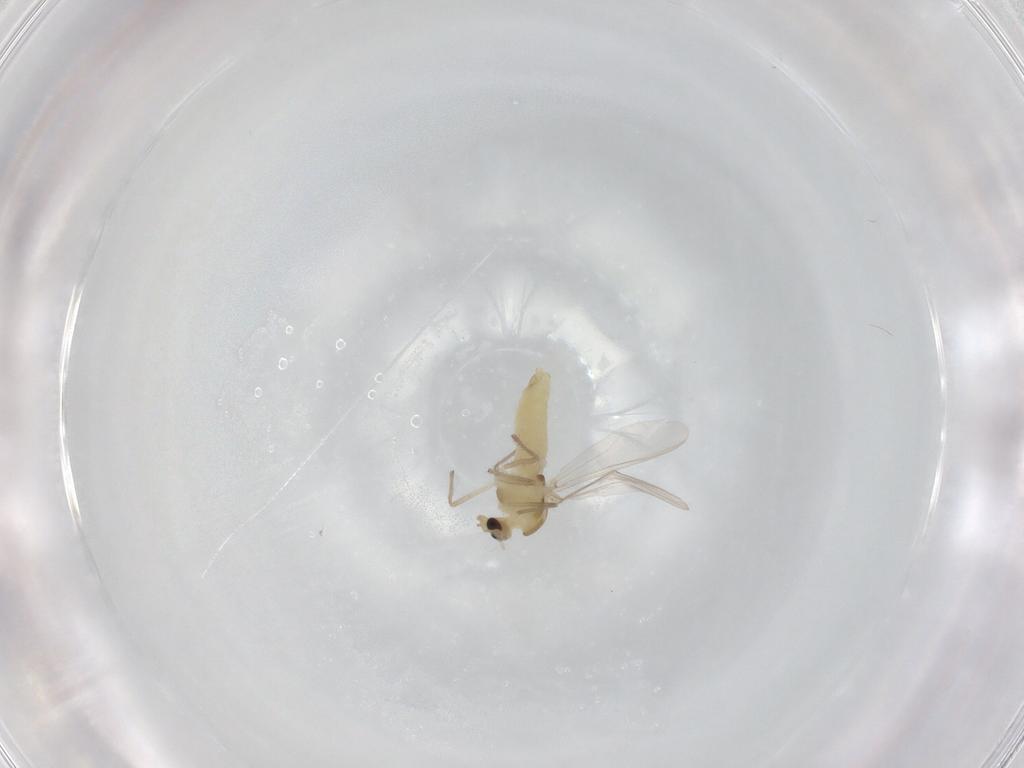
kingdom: Animalia
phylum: Arthropoda
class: Insecta
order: Diptera
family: Chironomidae
